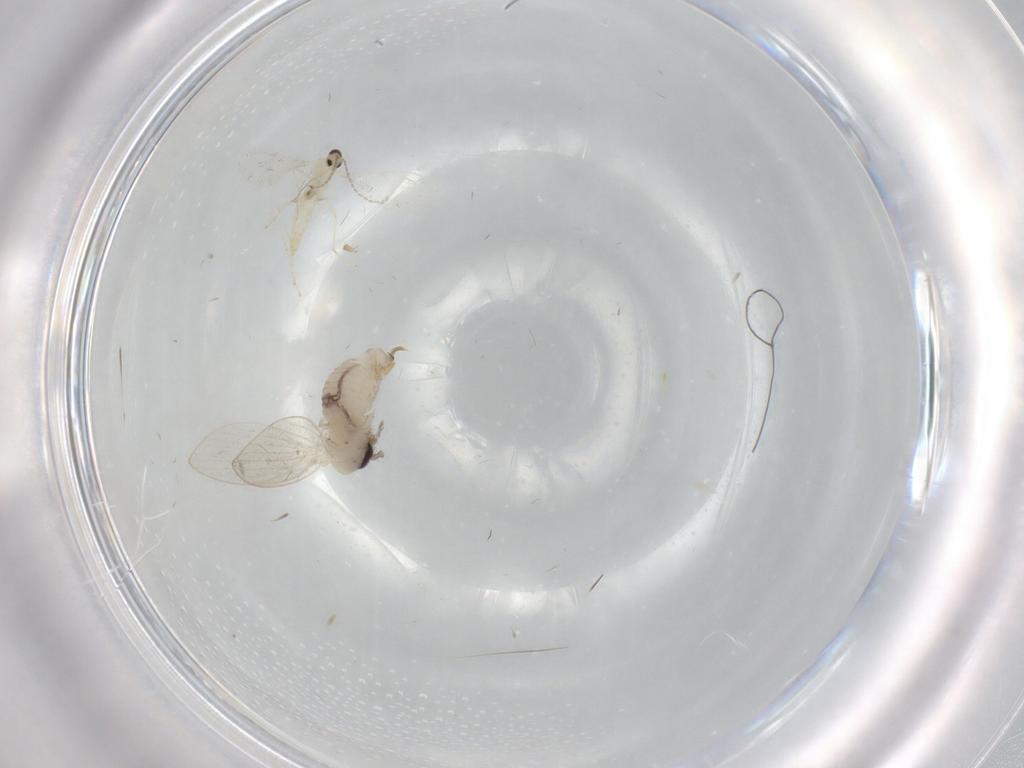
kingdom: Animalia
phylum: Arthropoda
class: Insecta
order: Diptera
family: Psychodidae
